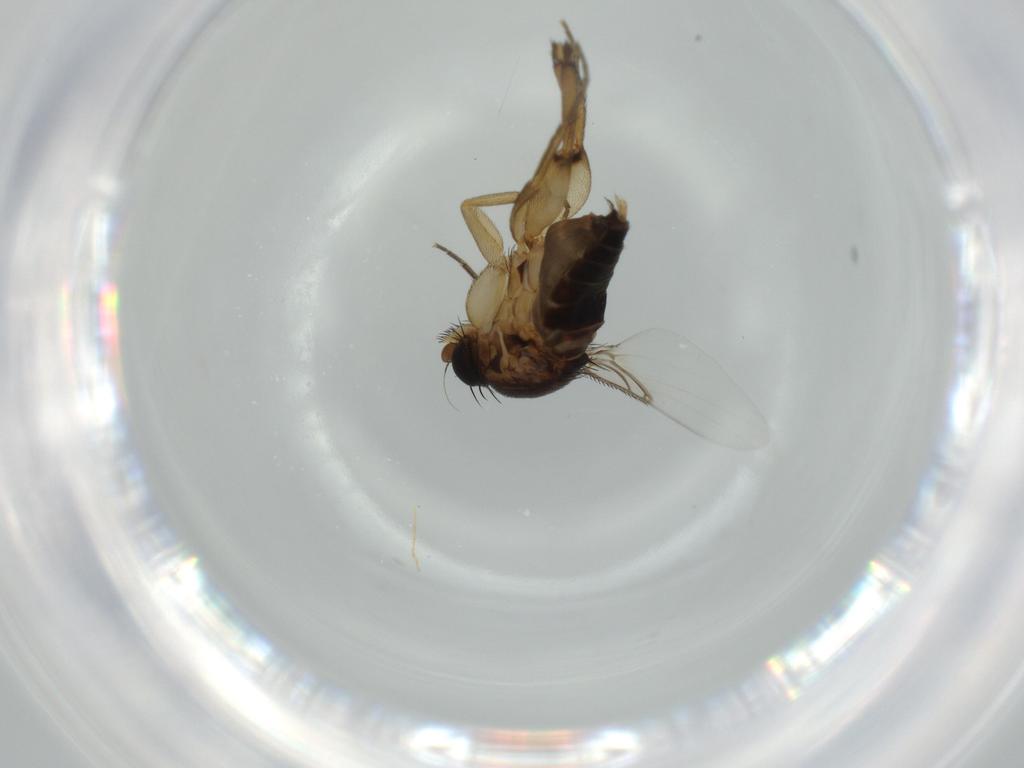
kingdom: Animalia
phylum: Arthropoda
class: Insecta
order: Diptera
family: Phoridae
